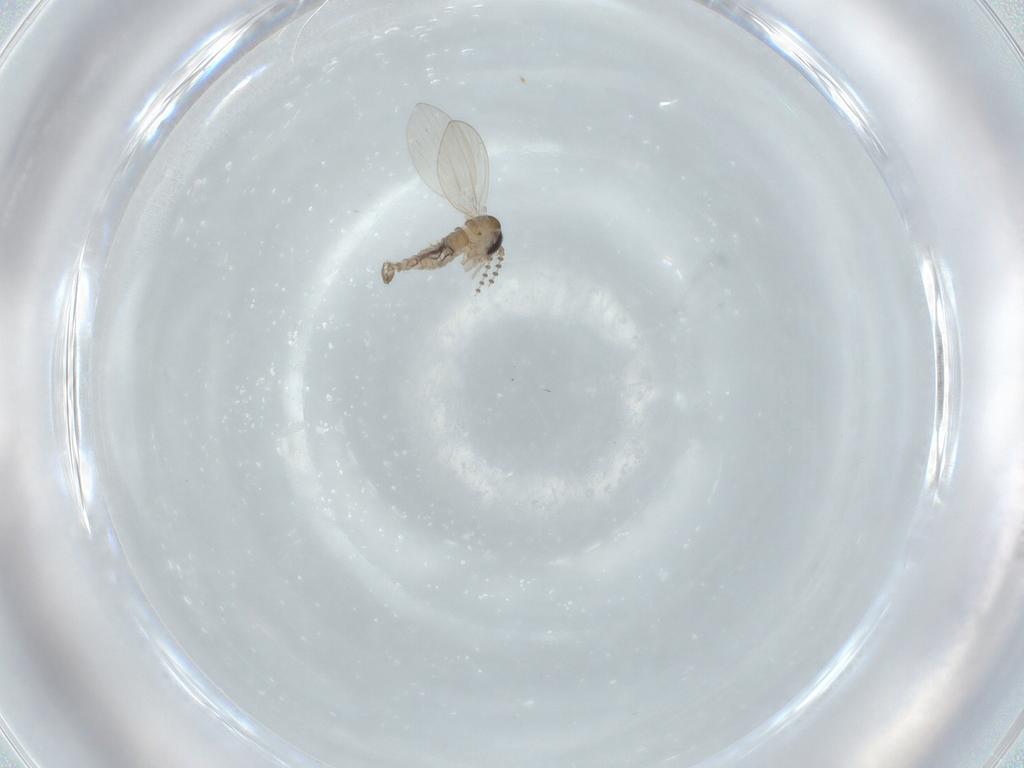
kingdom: Animalia
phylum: Arthropoda
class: Insecta
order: Diptera
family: Psychodidae
